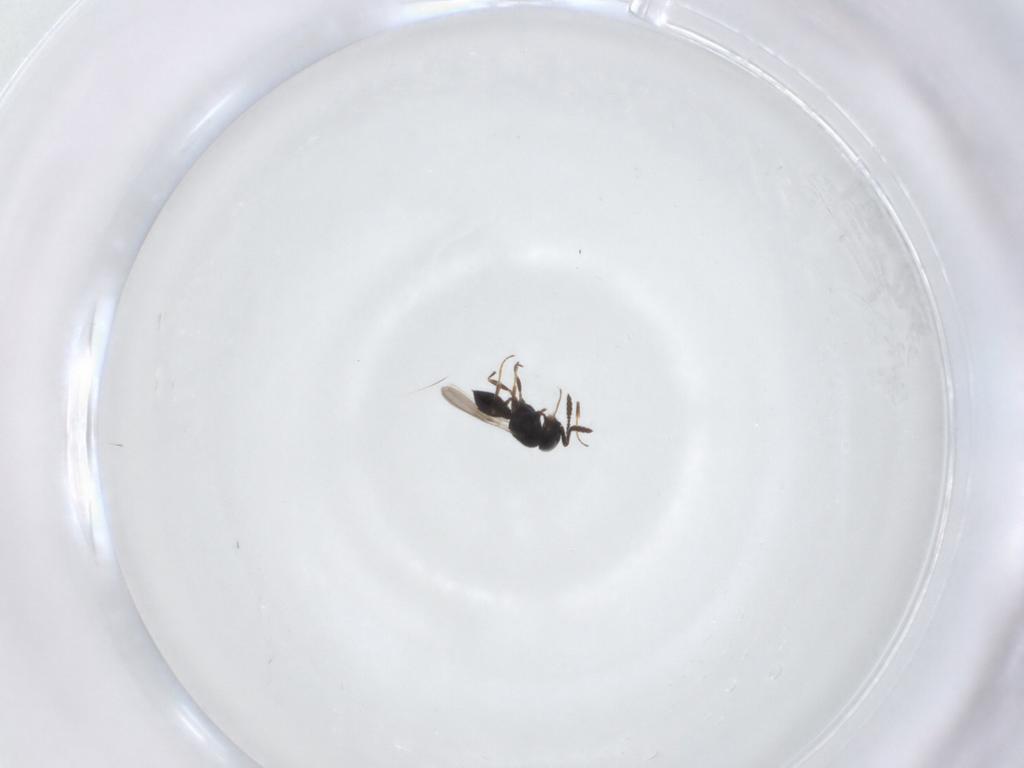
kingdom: Animalia
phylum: Arthropoda
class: Insecta
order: Hymenoptera
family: Scelionidae
